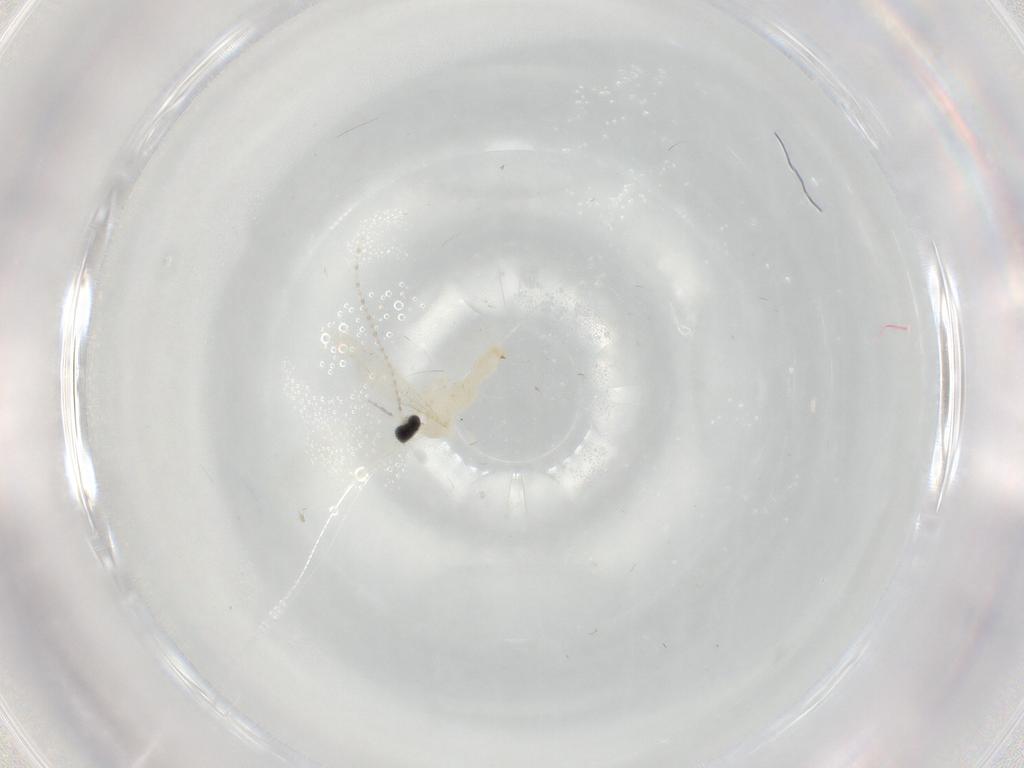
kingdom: Animalia
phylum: Arthropoda
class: Insecta
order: Diptera
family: Cecidomyiidae
